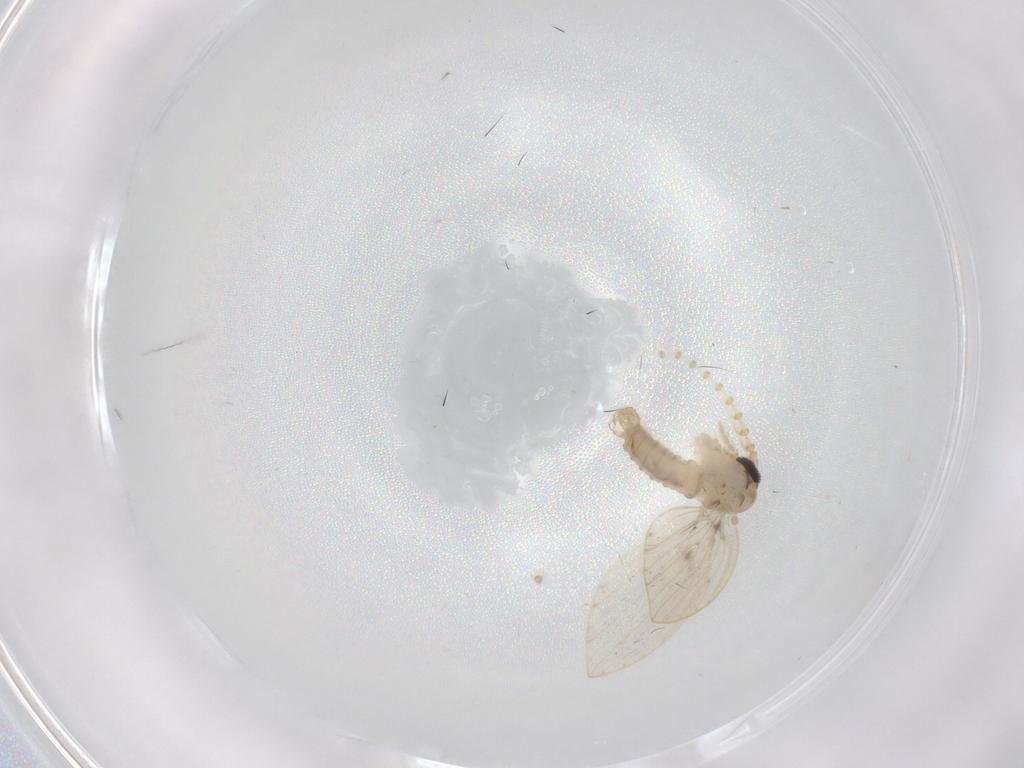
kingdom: Animalia
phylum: Arthropoda
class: Insecta
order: Diptera
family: Psychodidae
